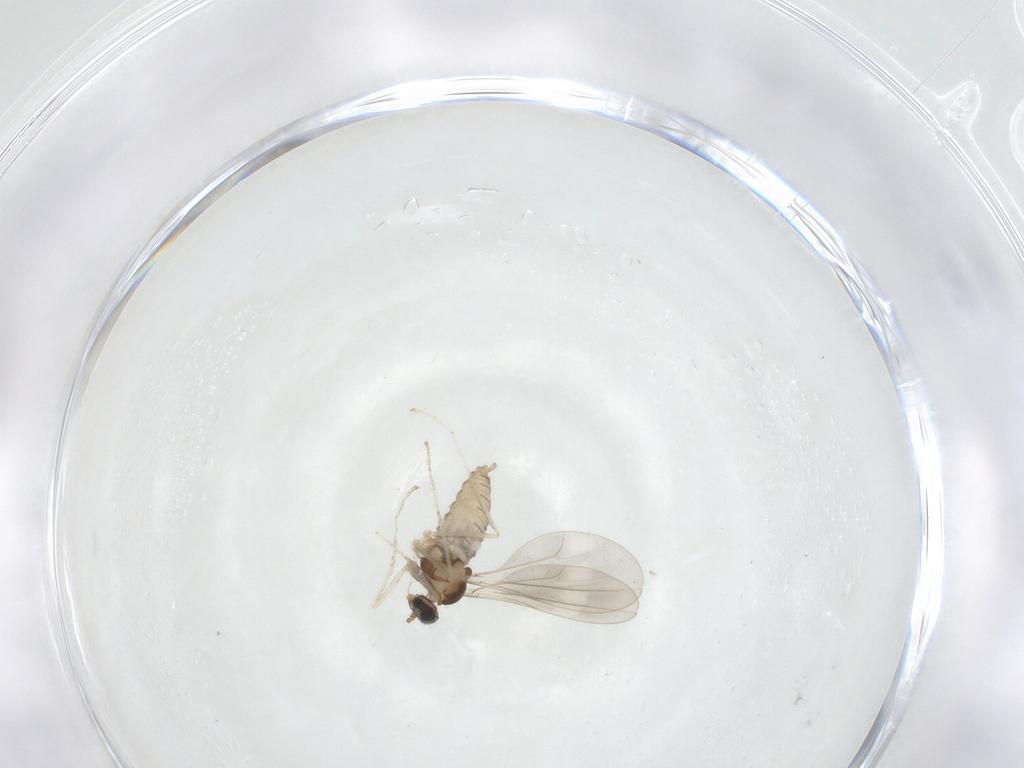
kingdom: Animalia
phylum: Arthropoda
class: Insecta
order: Diptera
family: Cecidomyiidae
